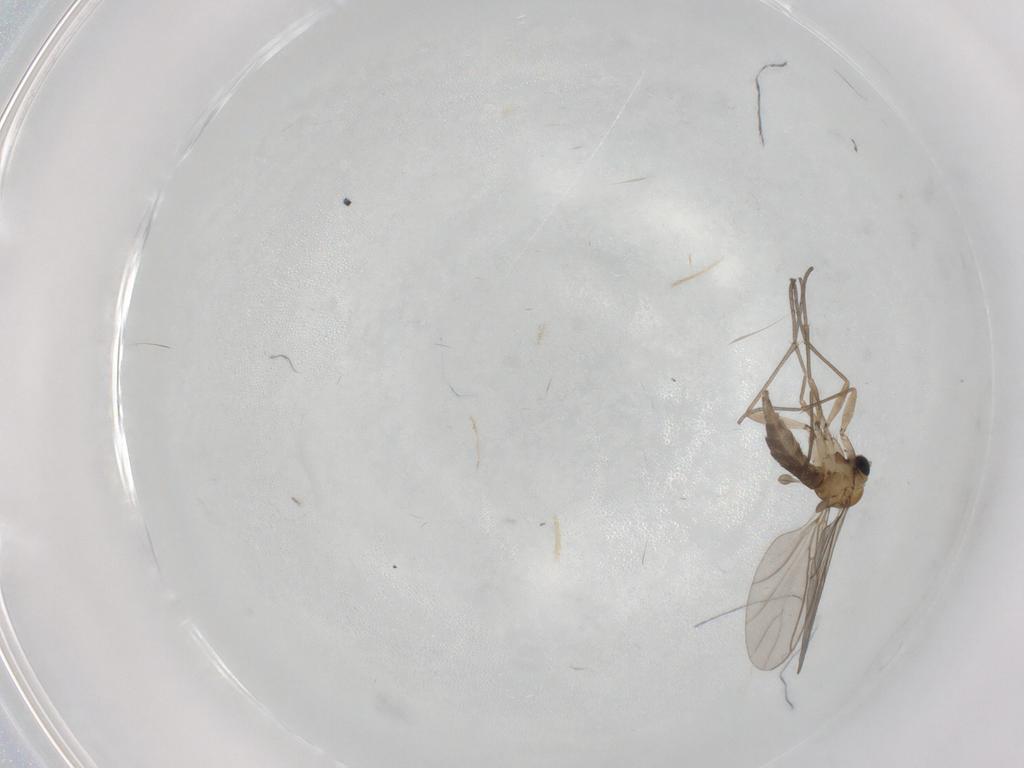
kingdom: Animalia
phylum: Arthropoda
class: Insecta
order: Diptera
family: Sciaridae
